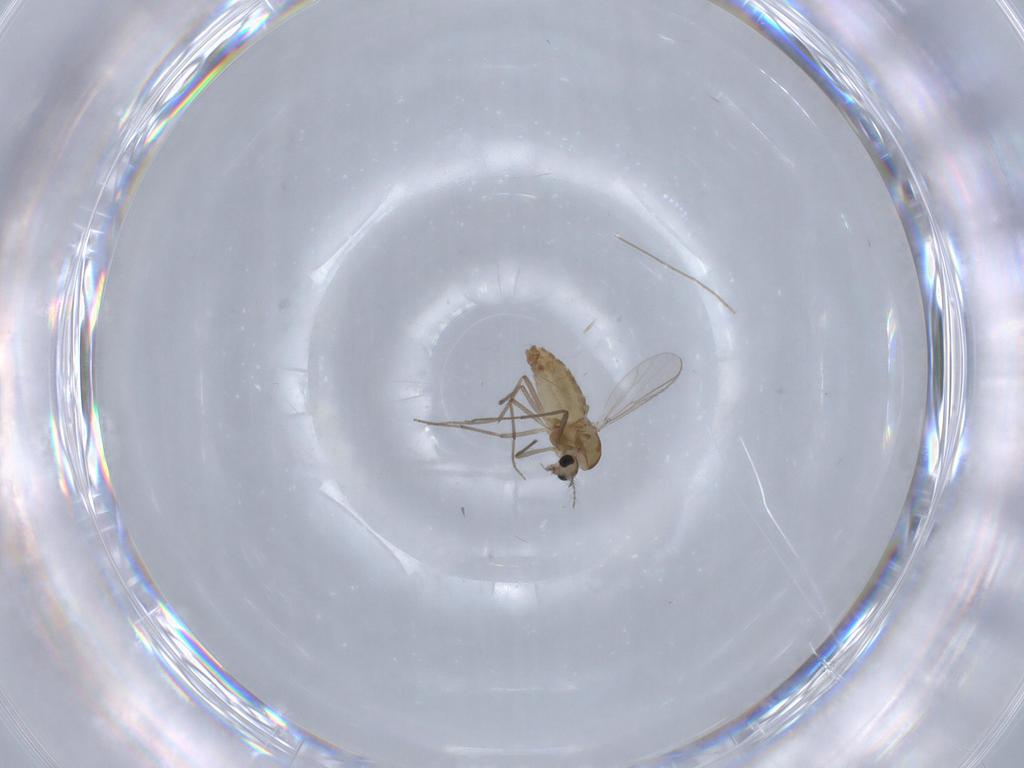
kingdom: Animalia
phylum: Arthropoda
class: Insecta
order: Diptera
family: Chironomidae
